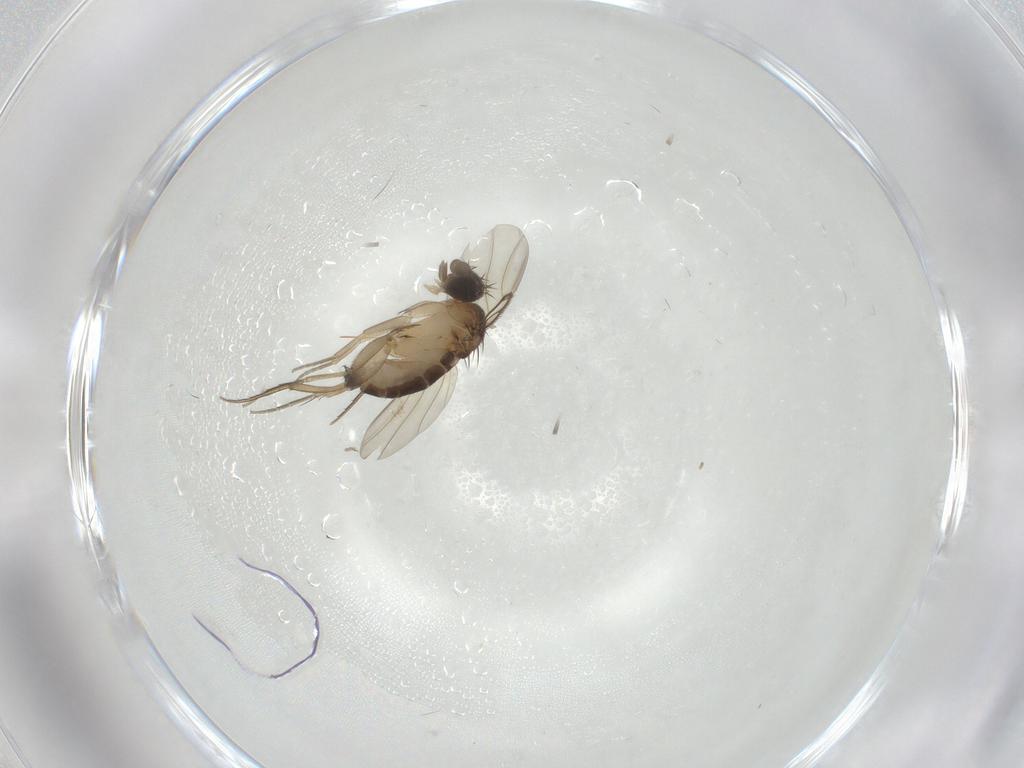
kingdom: Animalia
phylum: Arthropoda
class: Insecta
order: Diptera
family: Phoridae
